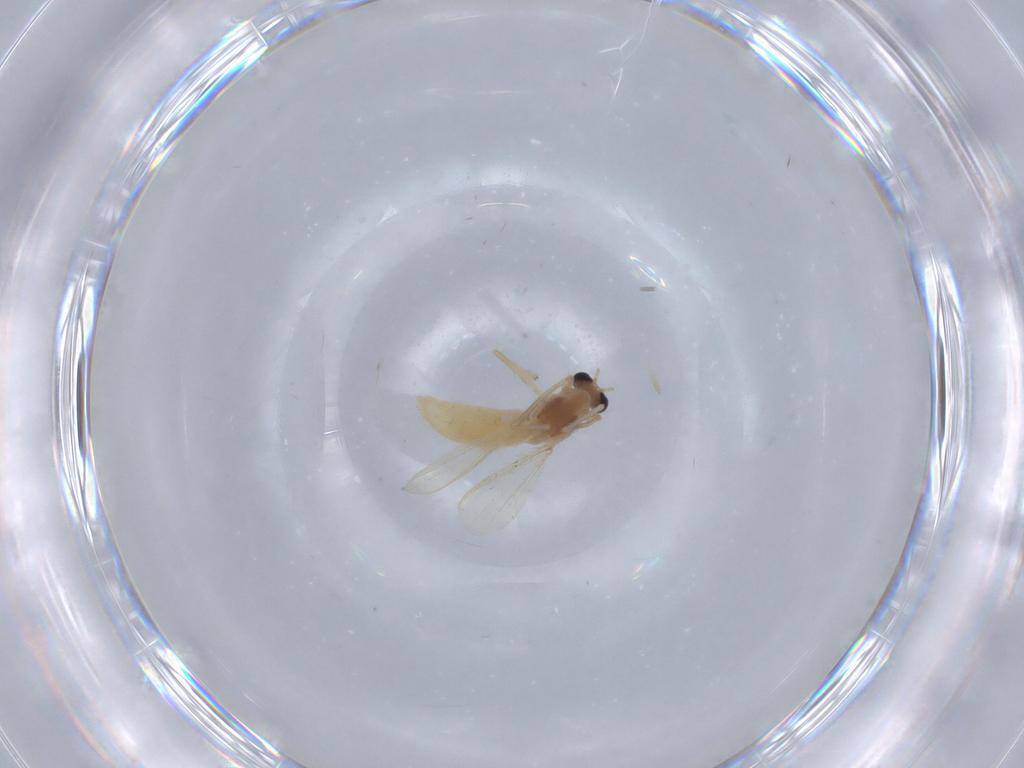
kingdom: Animalia
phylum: Arthropoda
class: Insecta
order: Diptera
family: Chironomidae
